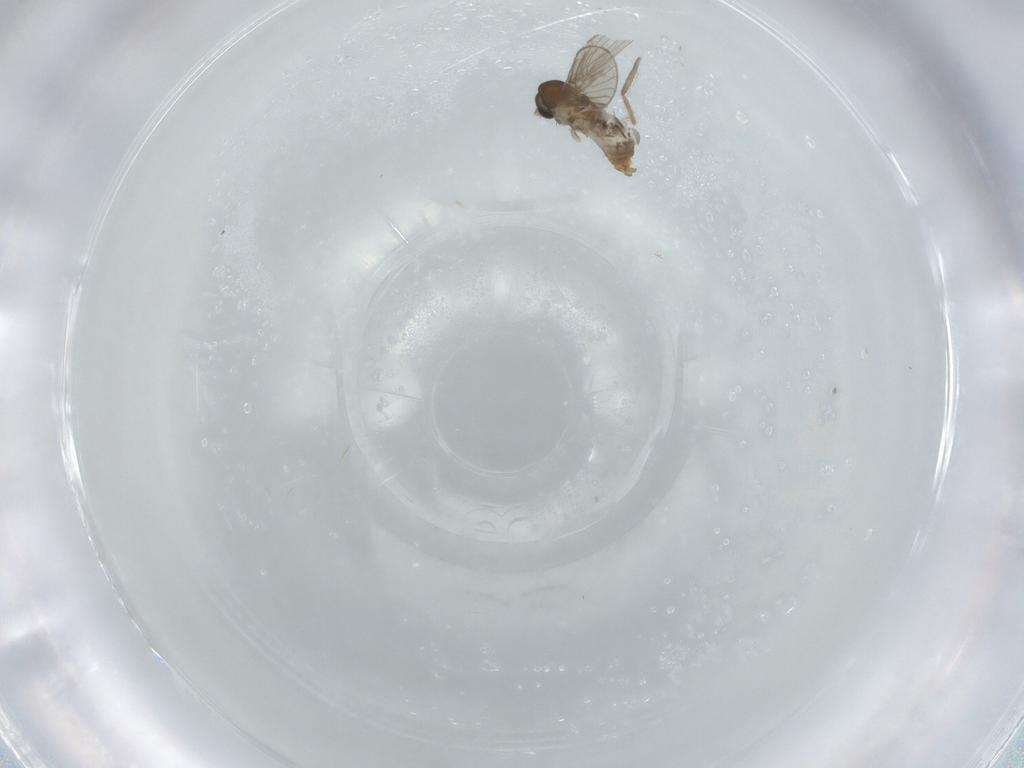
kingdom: Animalia
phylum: Arthropoda
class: Insecta
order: Diptera
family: Chironomidae
